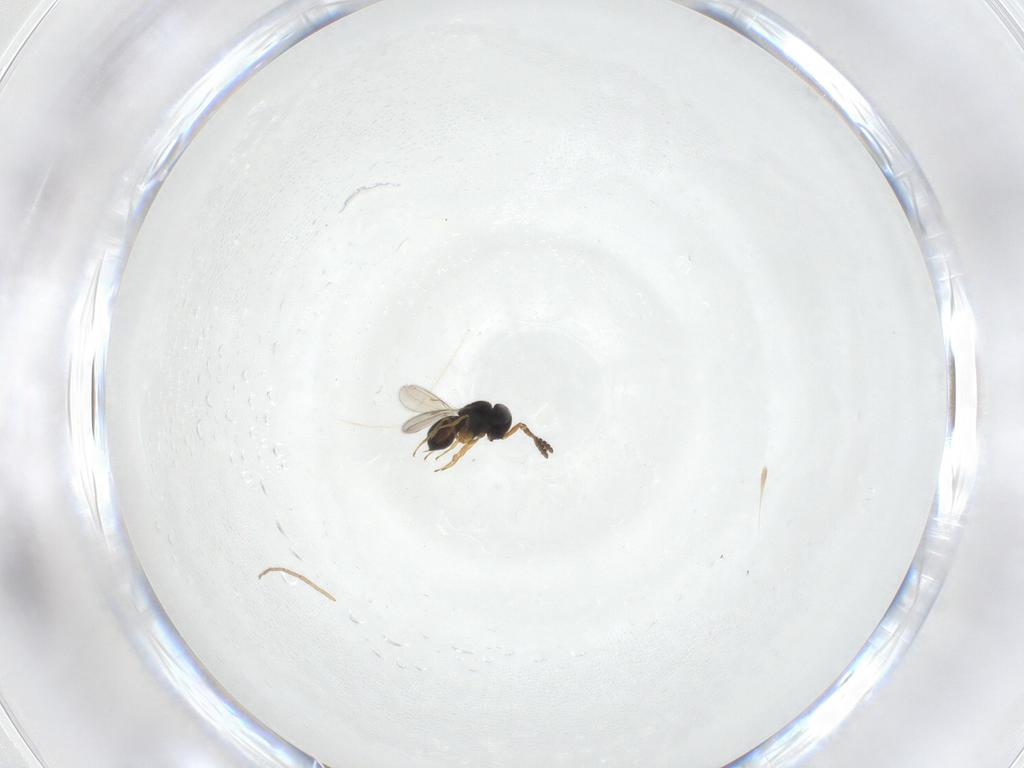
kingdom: Animalia
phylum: Arthropoda
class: Insecta
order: Hymenoptera
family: Scelionidae
